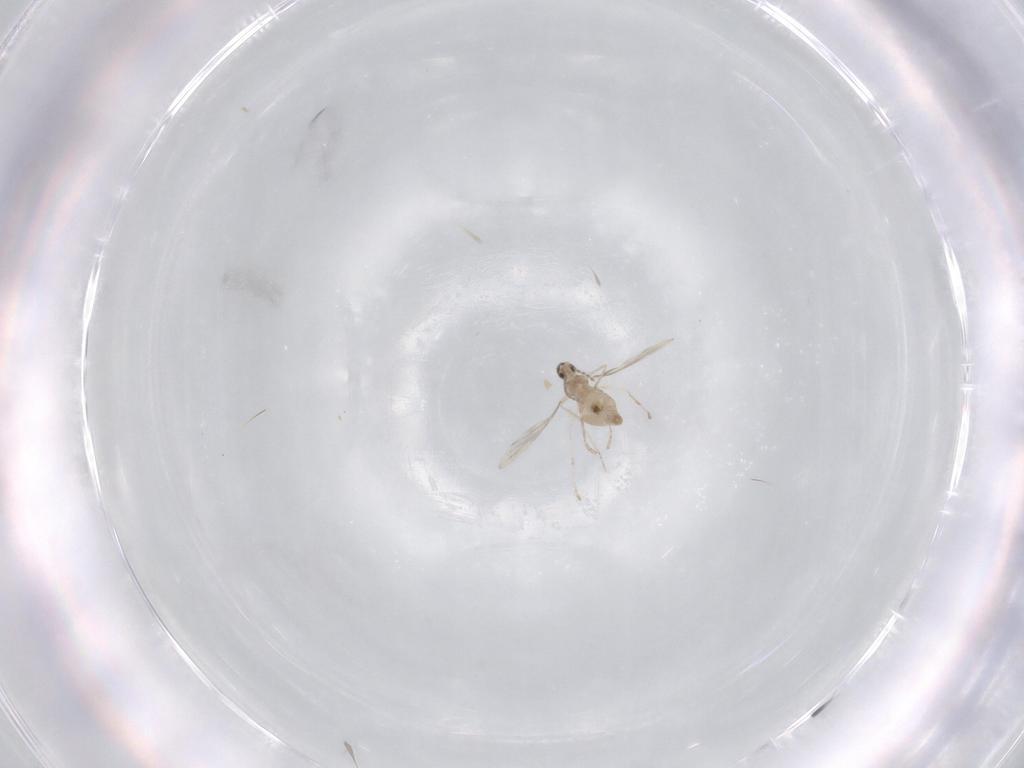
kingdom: Animalia
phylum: Arthropoda
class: Insecta
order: Diptera
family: Cecidomyiidae
